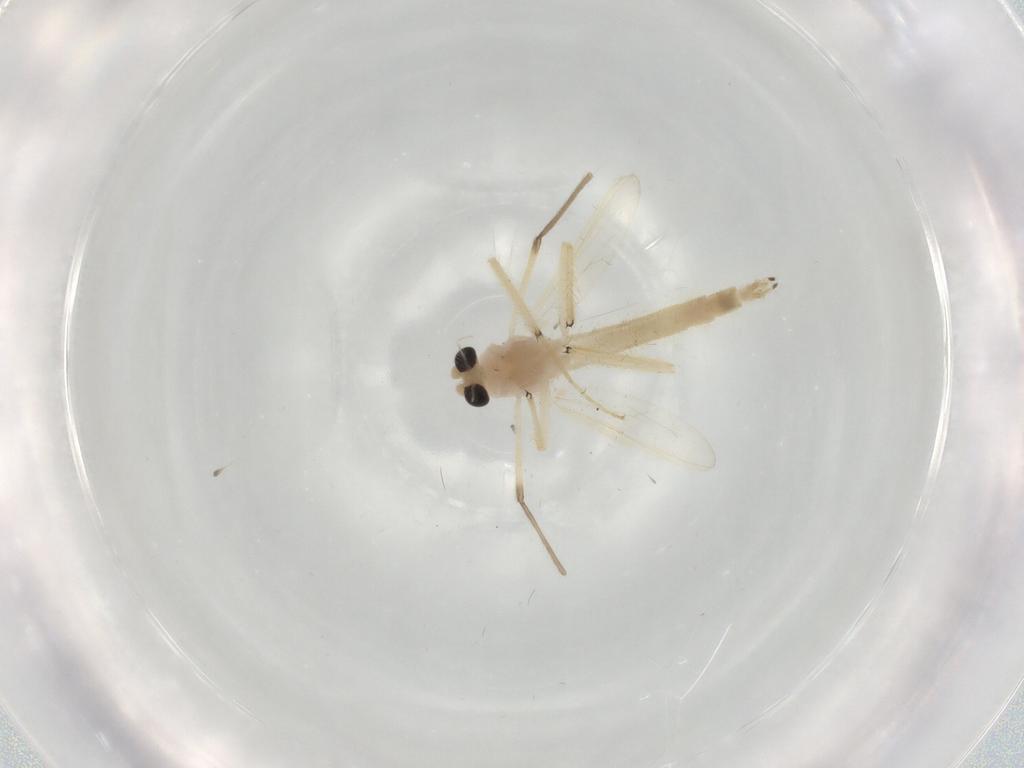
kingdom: Animalia
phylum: Arthropoda
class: Insecta
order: Diptera
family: Chironomidae
